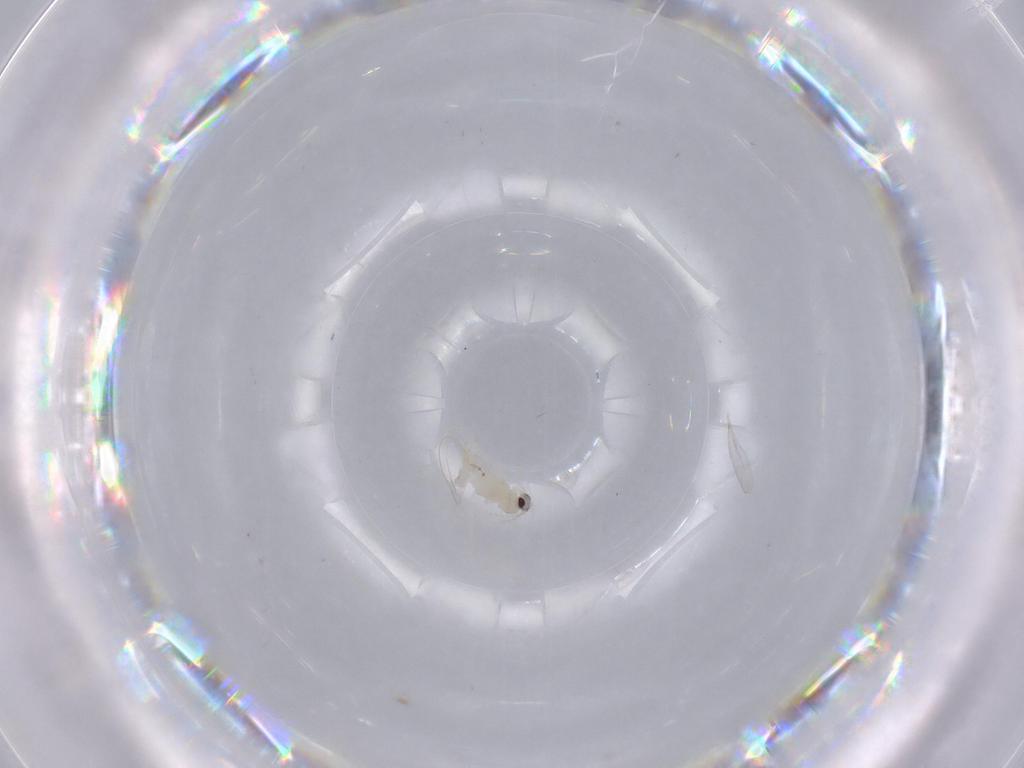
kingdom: Animalia
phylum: Arthropoda
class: Insecta
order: Diptera
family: Cecidomyiidae
